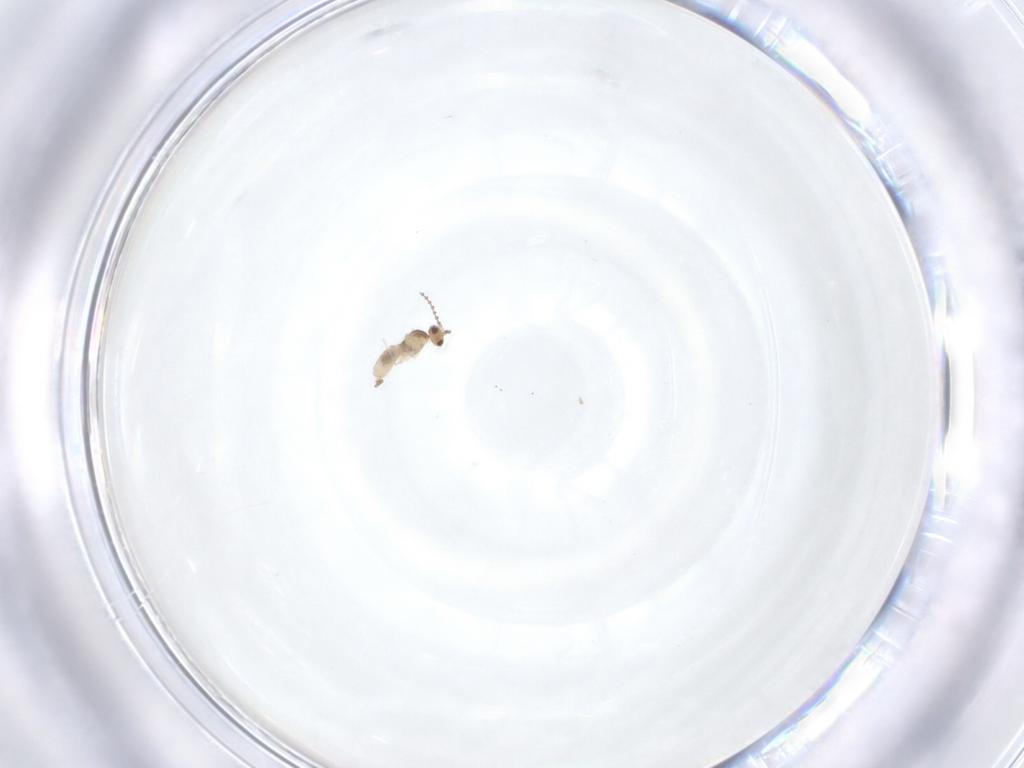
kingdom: Animalia
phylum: Arthropoda
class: Insecta
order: Diptera
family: Cecidomyiidae
